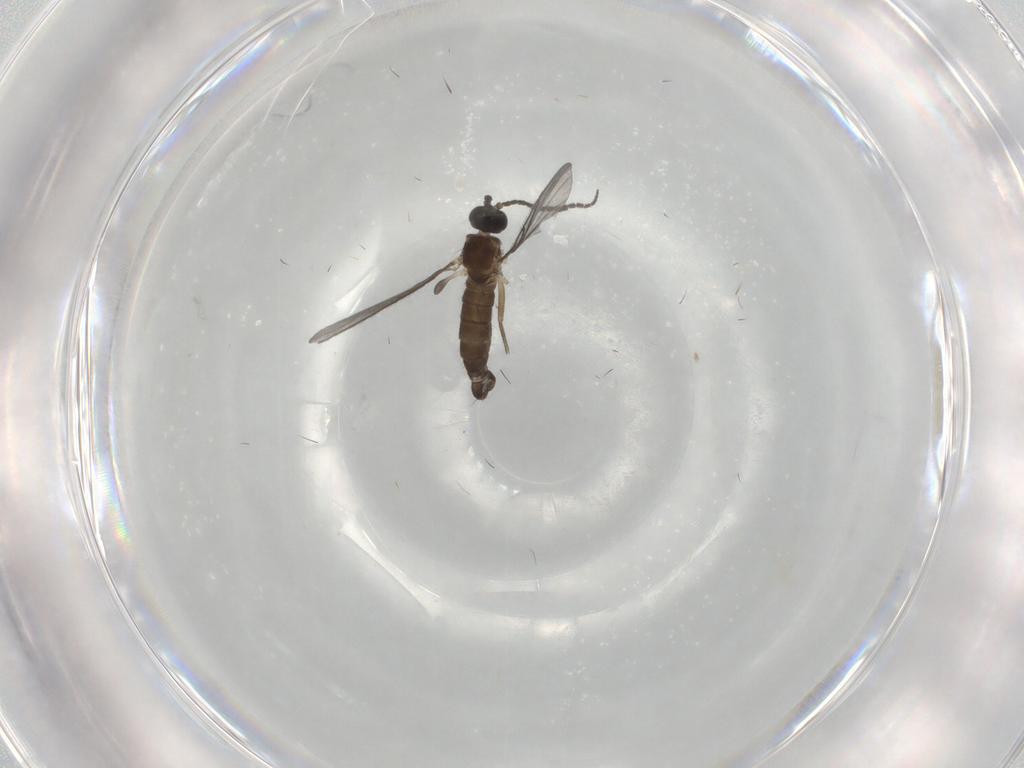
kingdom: Animalia
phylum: Arthropoda
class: Insecta
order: Diptera
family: Sciaridae
